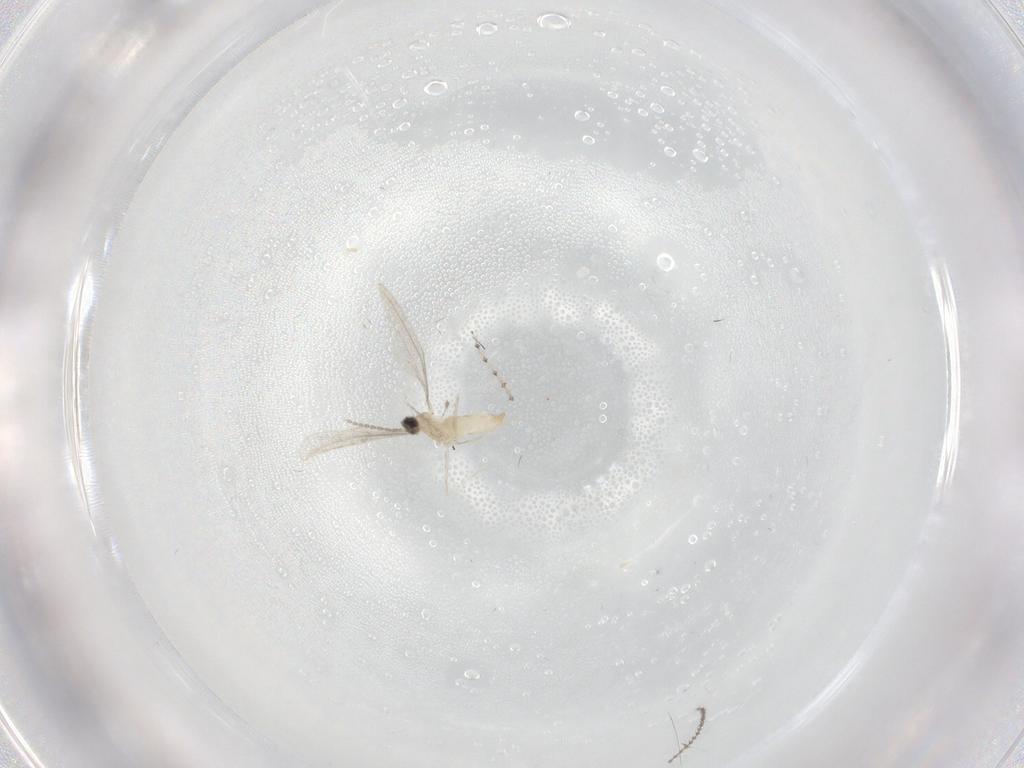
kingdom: Animalia
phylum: Arthropoda
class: Insecta
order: Diptera
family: Cecidomyiidae
